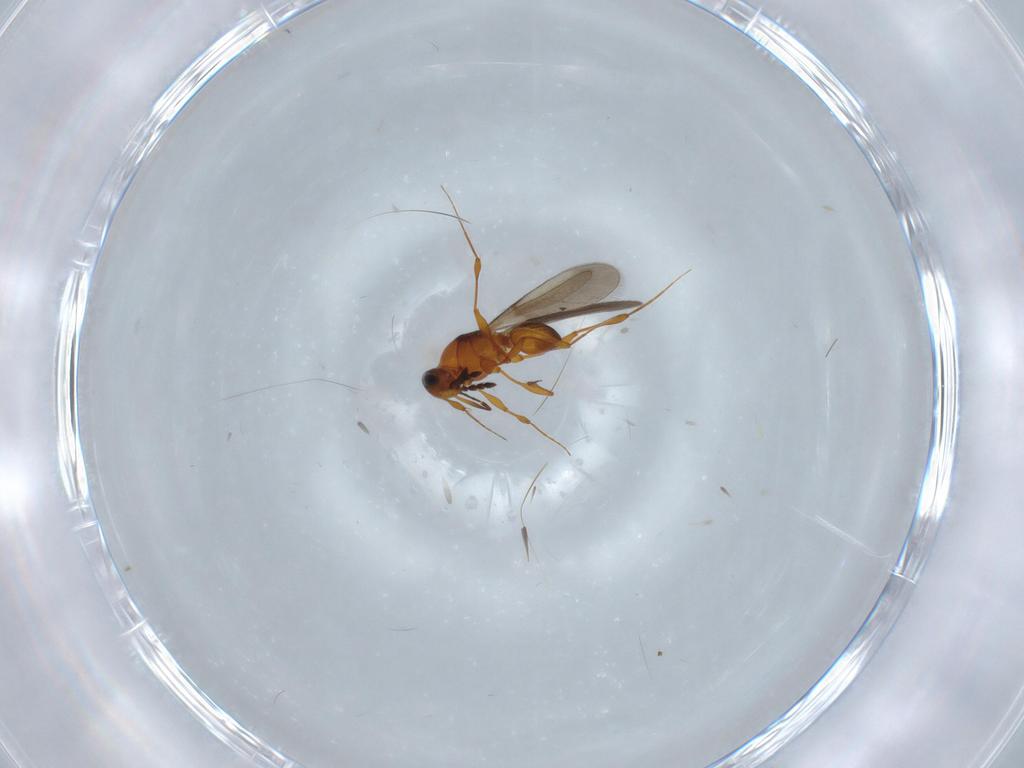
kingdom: Animalia
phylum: Arthropoda
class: Insecta
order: Hymenoptera
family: Platygastridae
